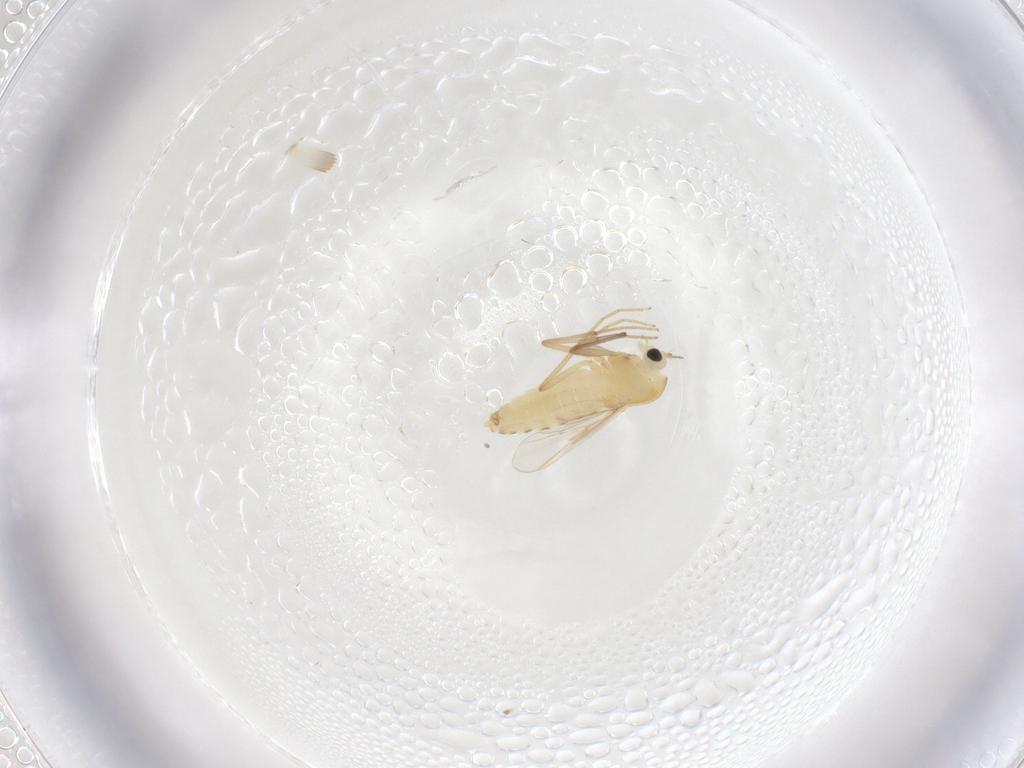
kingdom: Animalia
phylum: Arthropoda
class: Insecta
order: Diptera
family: Chironomidae
